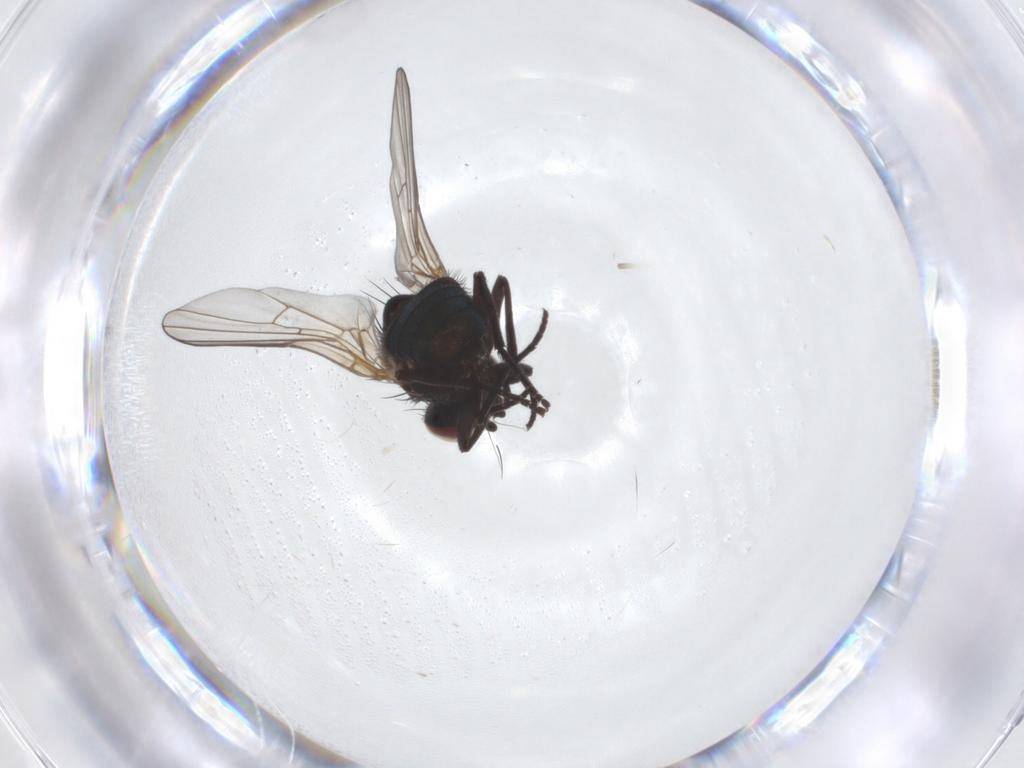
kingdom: Animalia
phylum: Arthropoda
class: Insecta
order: Diptera
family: Agromyzidae
